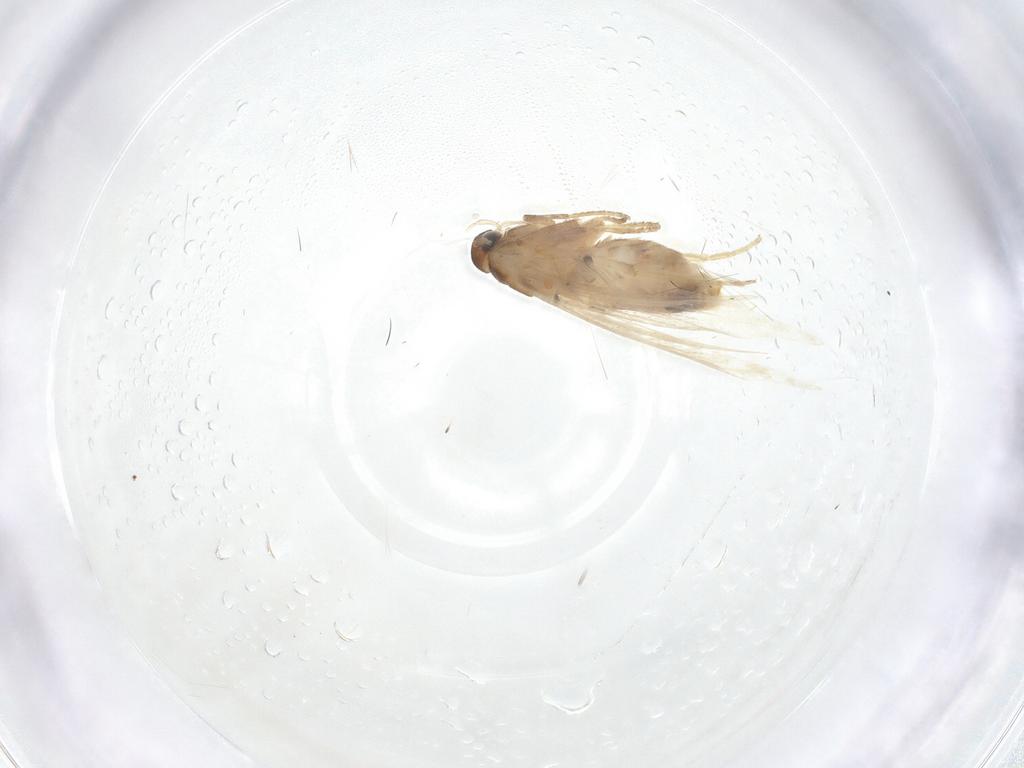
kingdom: Animalia
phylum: Arthropoda
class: Insecta
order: Lepidoptera
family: Gelechiidae
